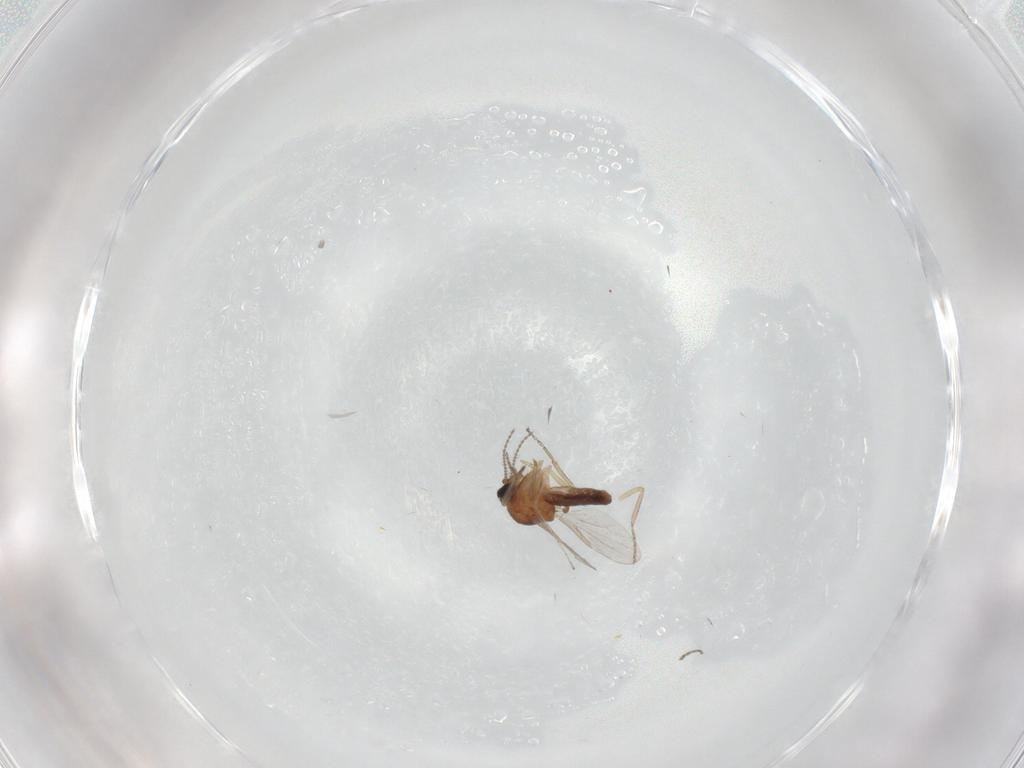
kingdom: Animalia
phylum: Arthropoda
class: Insecta
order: Diptera
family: Ceratopogonidae
